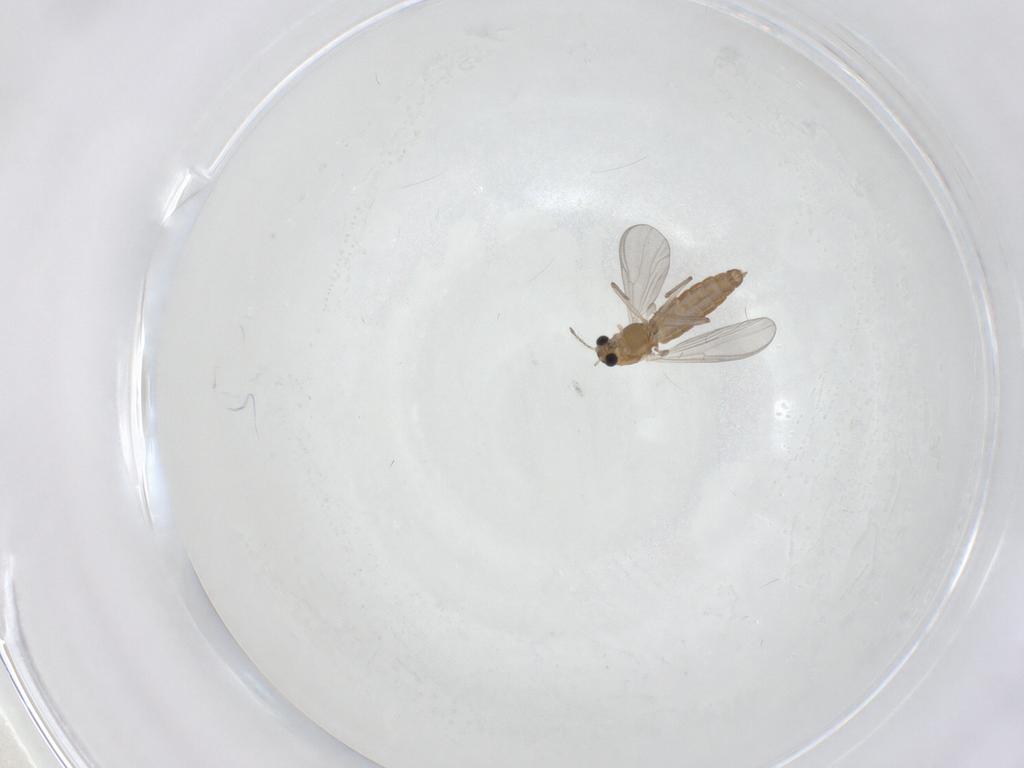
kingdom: Animalia
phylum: Arthropoda
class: Insecta
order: Diptera
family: Chironomidae
